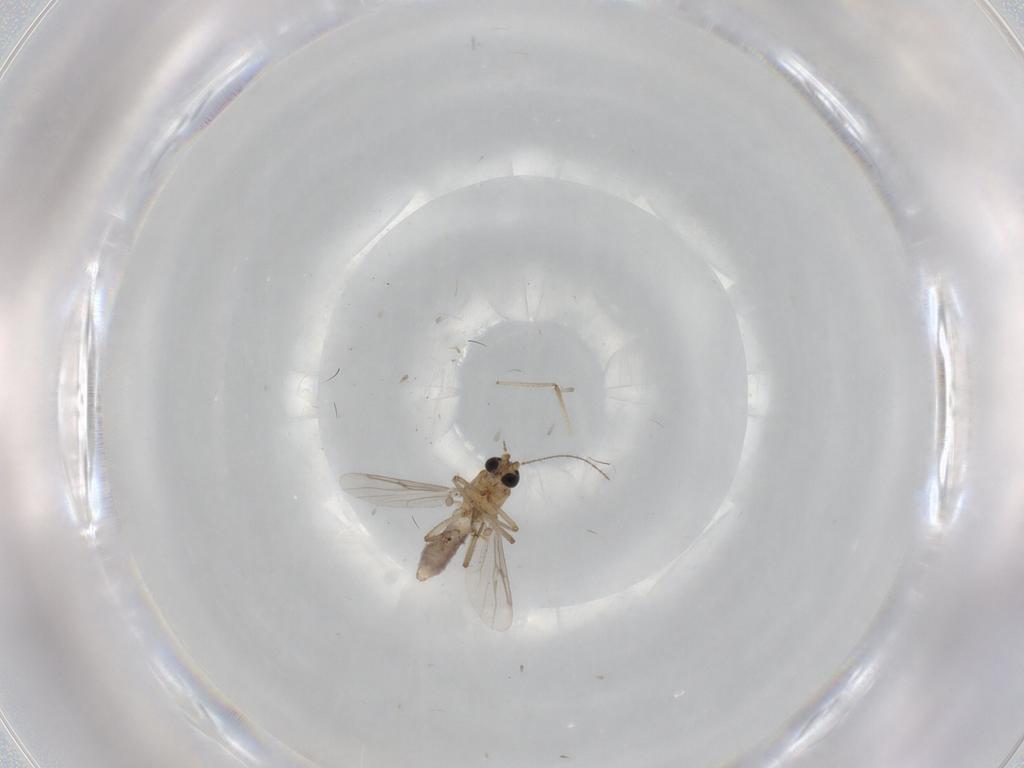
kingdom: Animalia
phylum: Arthropoda
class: Insecta
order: Diptera
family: Ceratopogonidae
